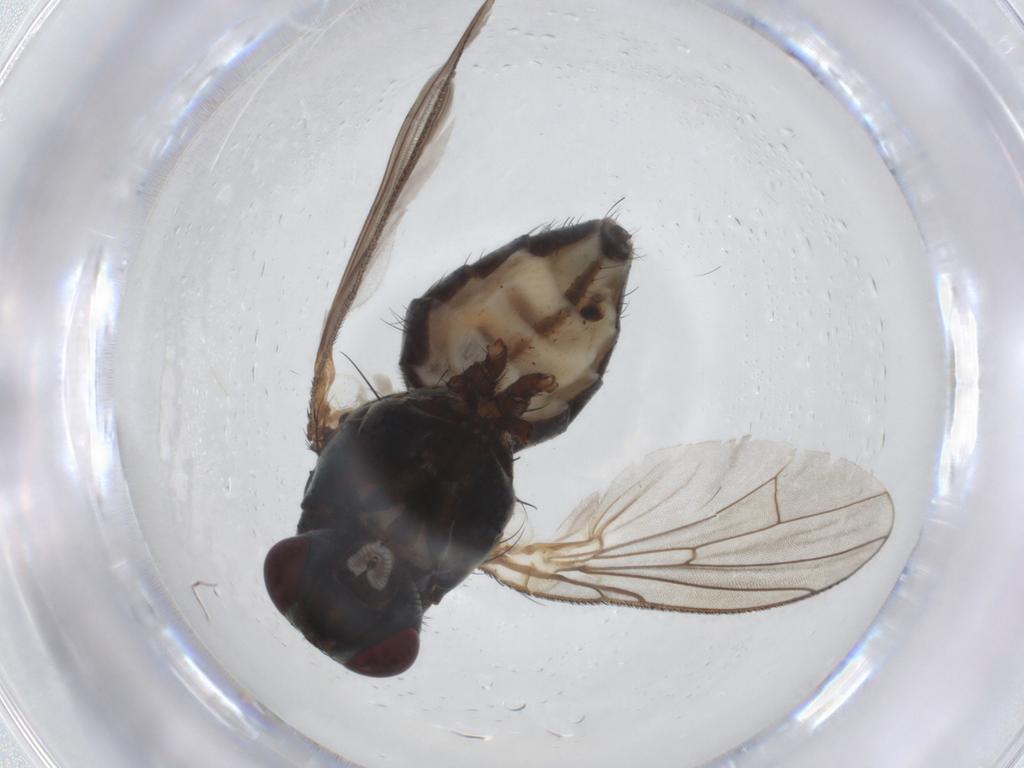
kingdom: Animalia
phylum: Arthropoda
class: Insecta
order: Diptera
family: Anthomyiidae
